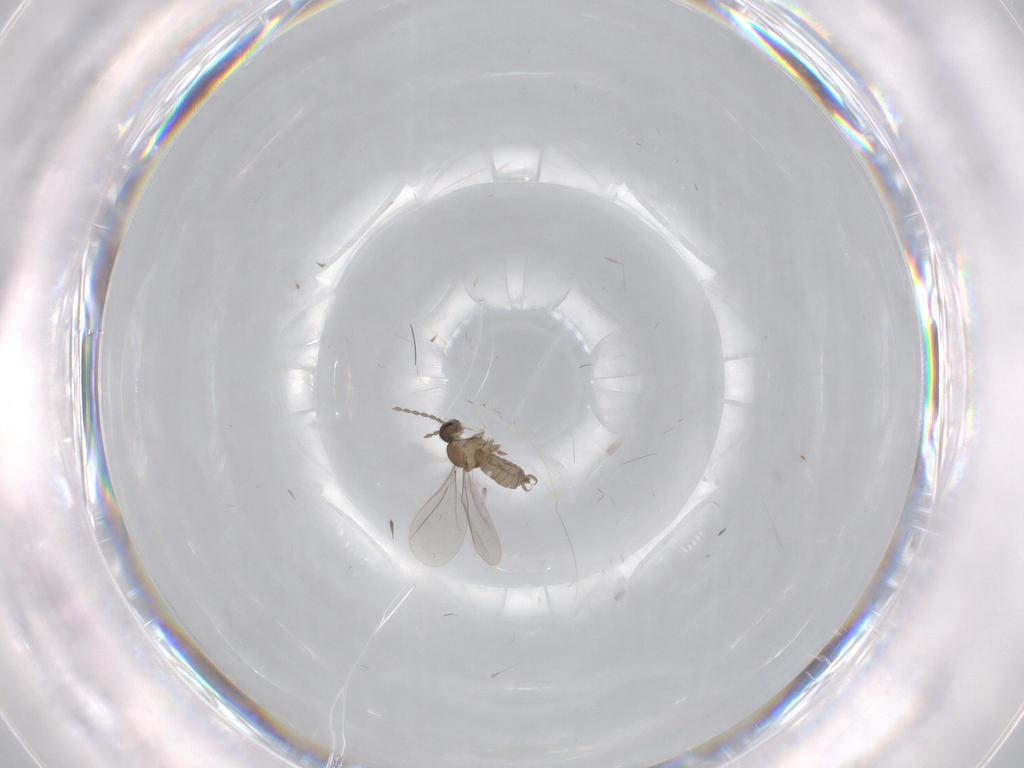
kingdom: Animalia
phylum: Arthropoda
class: Insecta
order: Diptera
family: Cecidomyiidae
